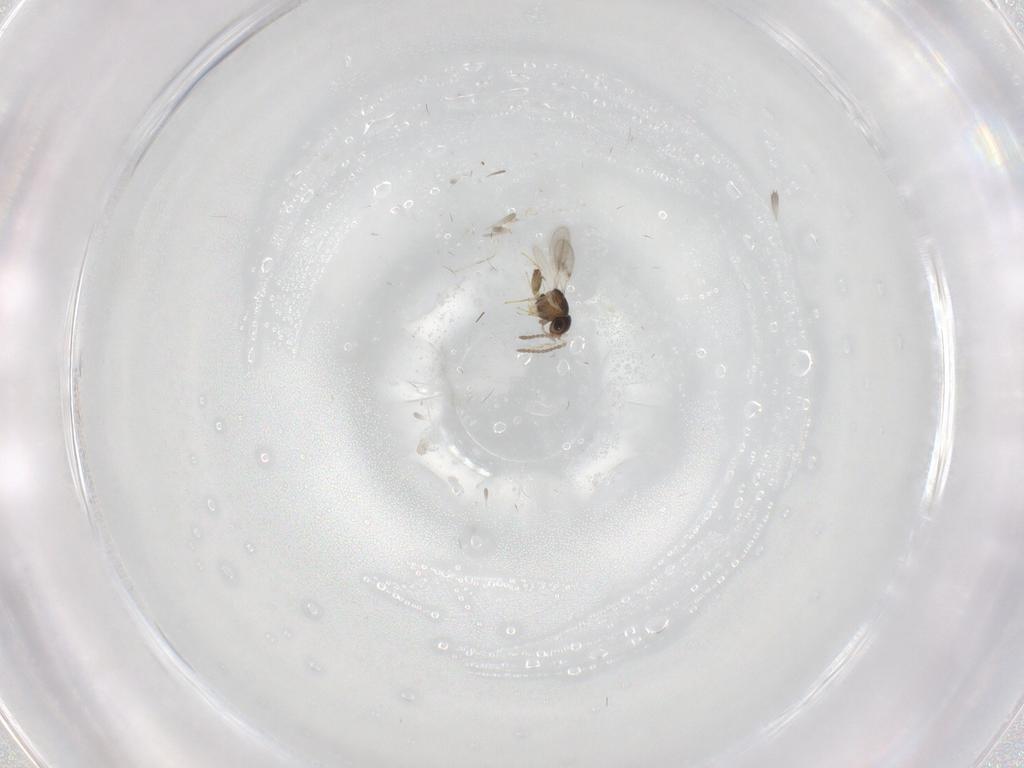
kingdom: Animalia
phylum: Arthropoda
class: Insecta
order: Hymenoptera
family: Scelionidae
